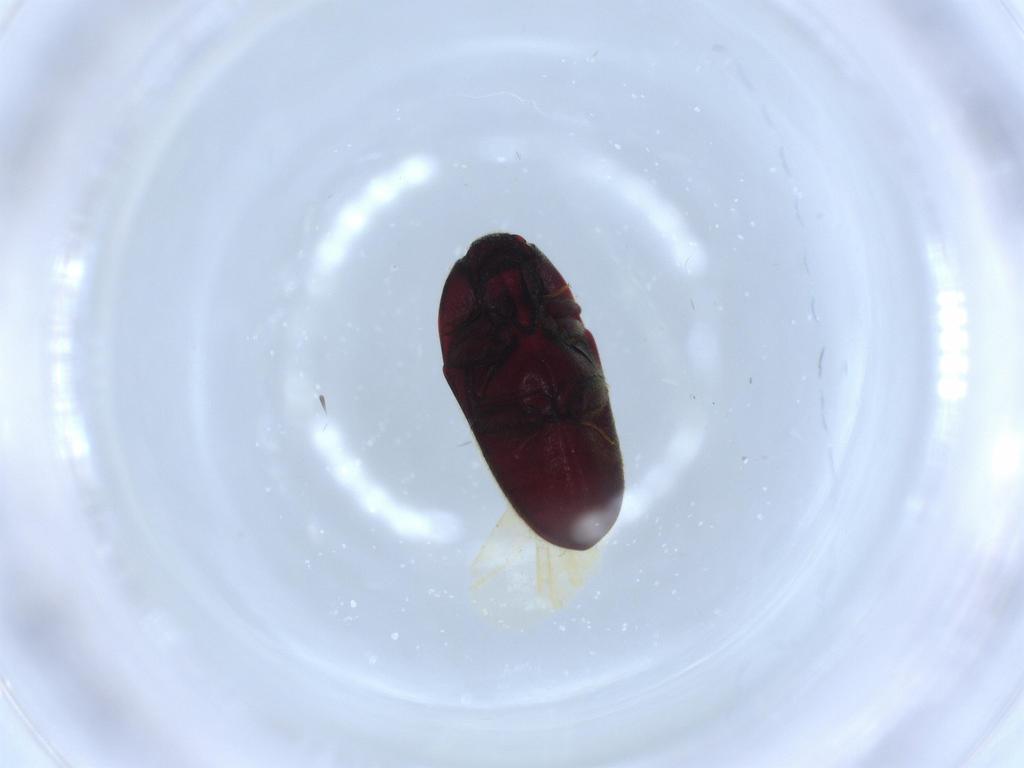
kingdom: Animalia
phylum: Arthropoda
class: Insecta
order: Coleoptera
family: Throscidae
